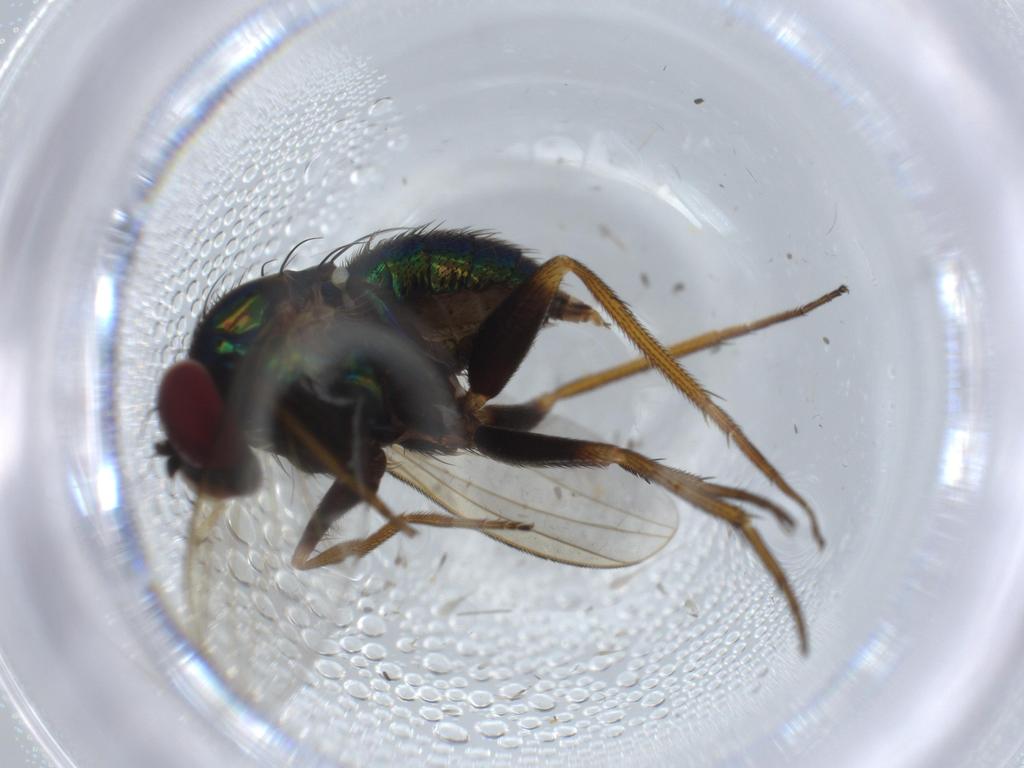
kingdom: Animalia
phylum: Arthropoda
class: Insecta
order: Diptera
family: Dolichopodidae
